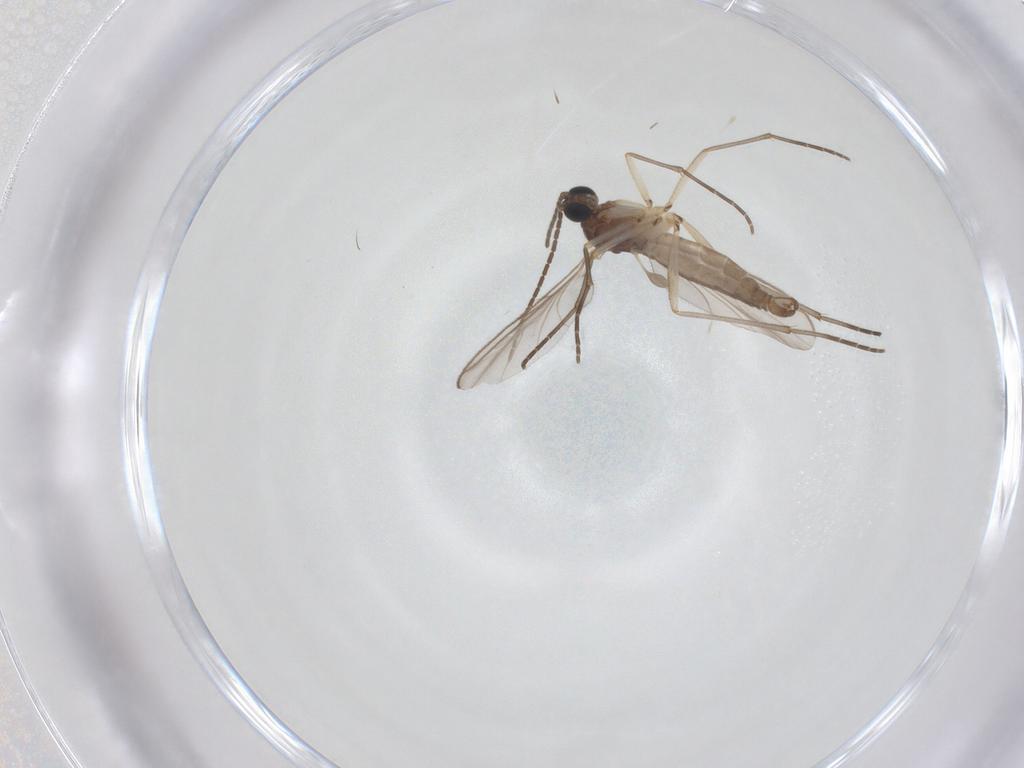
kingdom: Animalia
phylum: Arthropoda
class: Insecta
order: Diptera
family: Sciaridae
